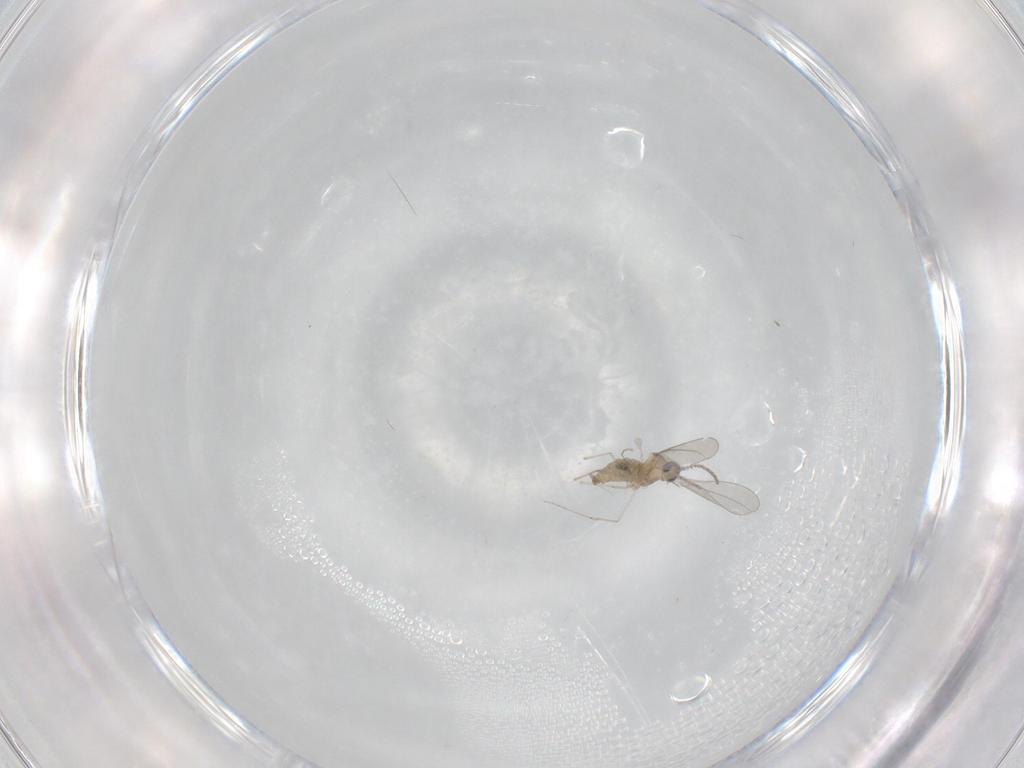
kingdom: Animalia
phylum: Arthropoda
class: Insecta
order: Diptera
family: Cecidomyiidae
